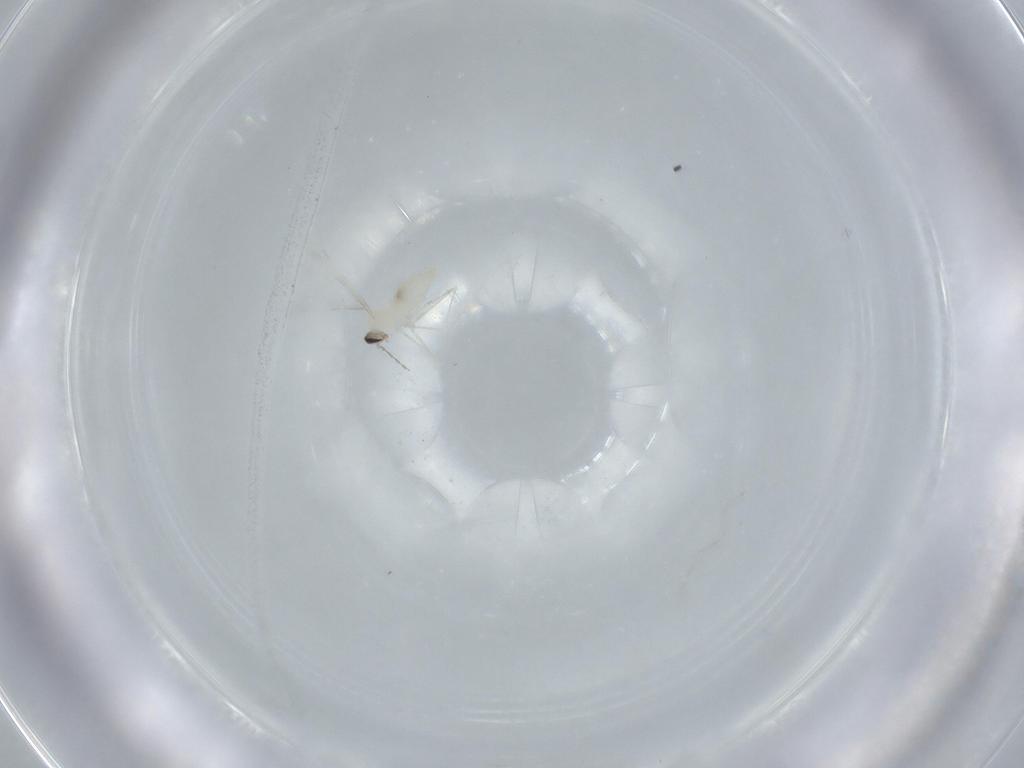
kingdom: Animalia
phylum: Arthropoda
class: Insecta
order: Diptera
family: Cecidomyiidae
